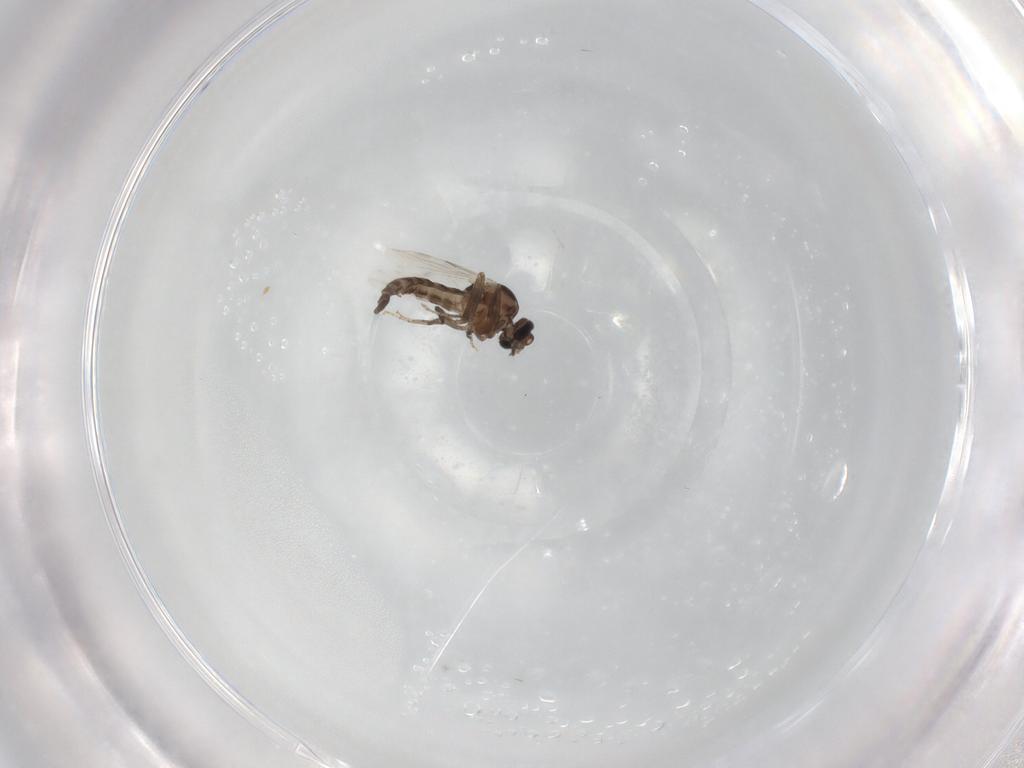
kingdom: Animalia
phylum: Arthropoda
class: Insecta
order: Diptera
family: Ceratopogonidae
